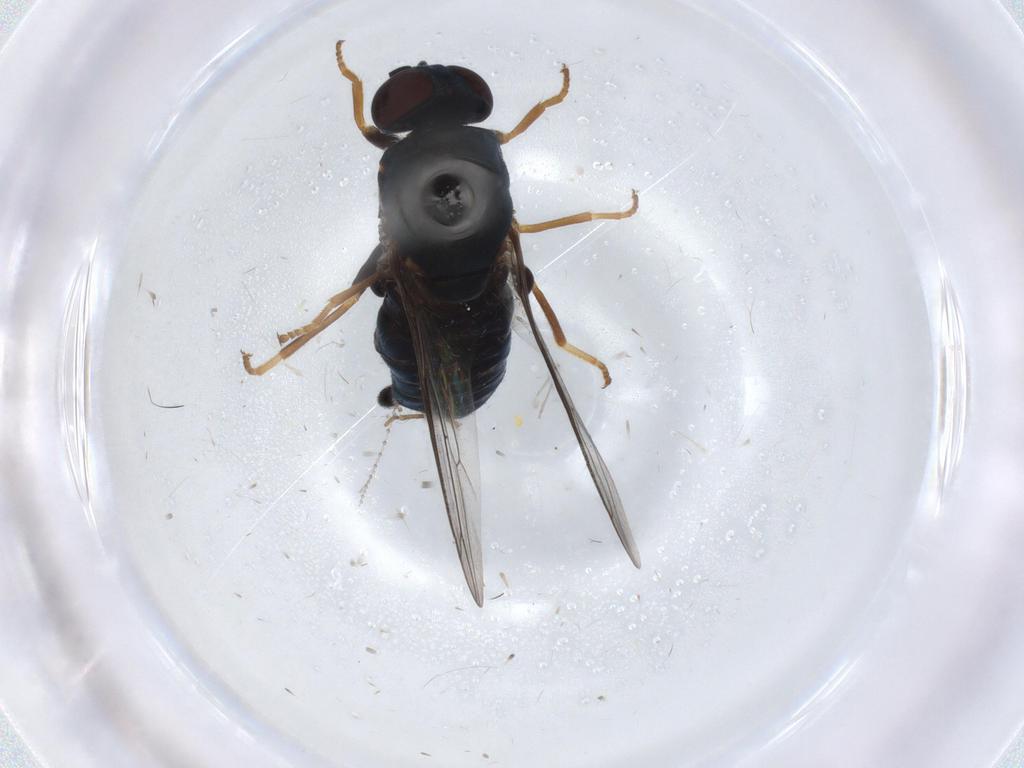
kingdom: Animalia
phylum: Arthropoda
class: Insecta
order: Diptera
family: Scenopinidae
